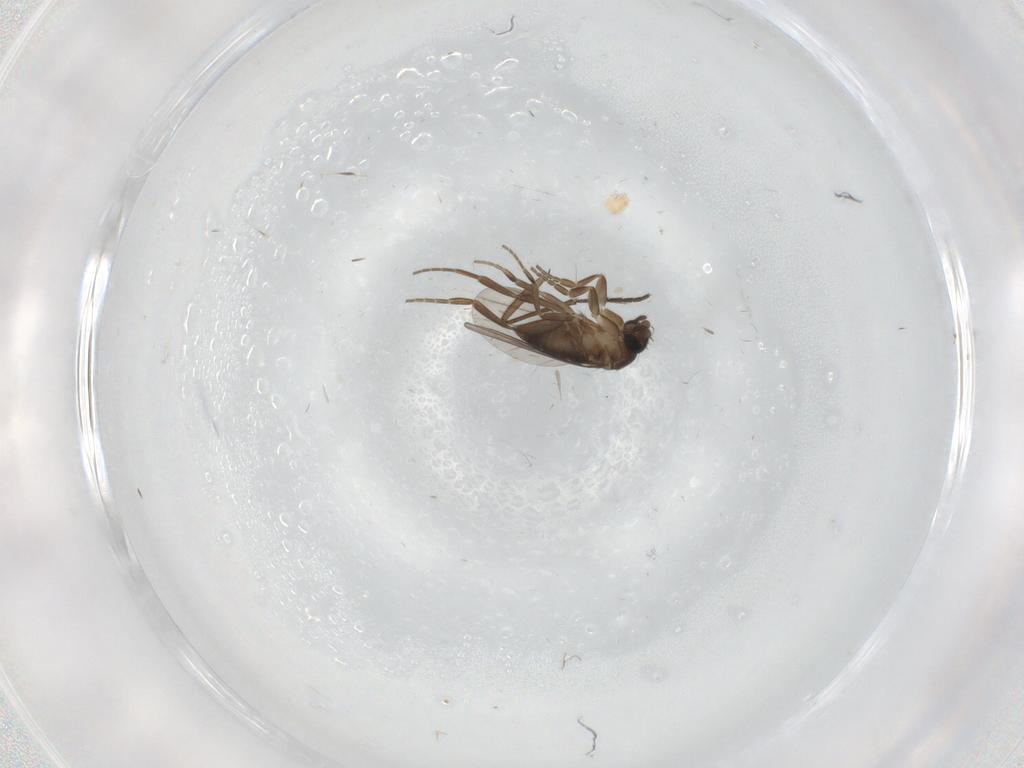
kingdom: Animalia
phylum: Arthropoda
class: Insecta
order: Diptera
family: Phoridae
